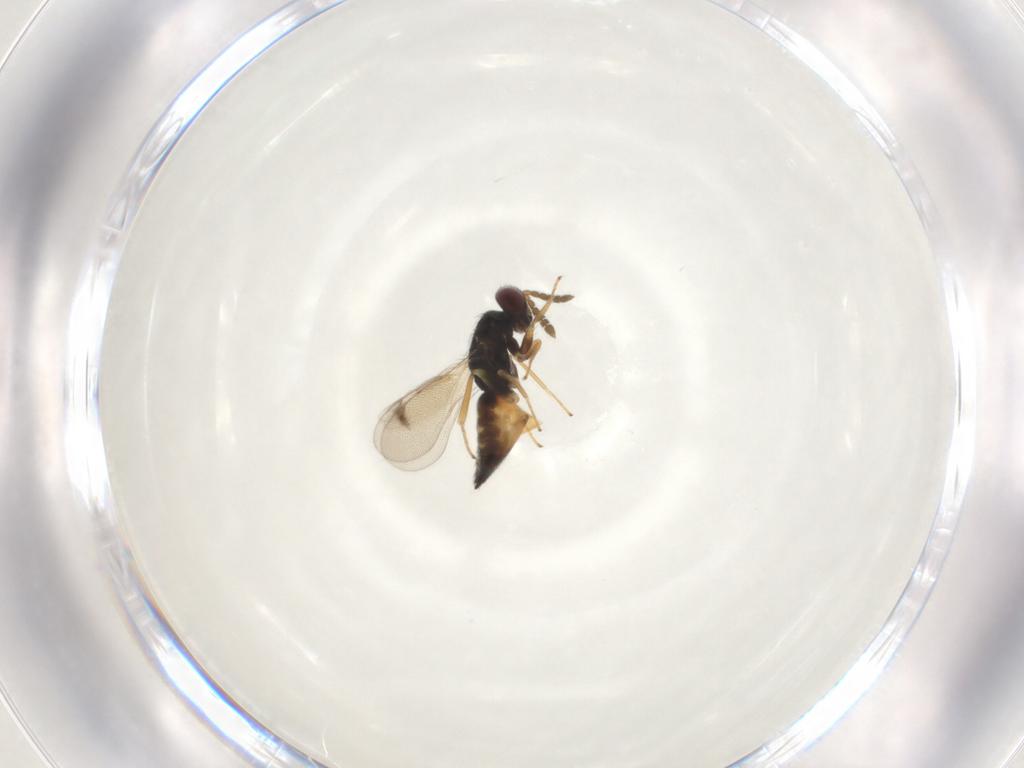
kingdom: Animalia
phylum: Arthropoda
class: Insecta
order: Hymenoptera
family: Eulophidae
